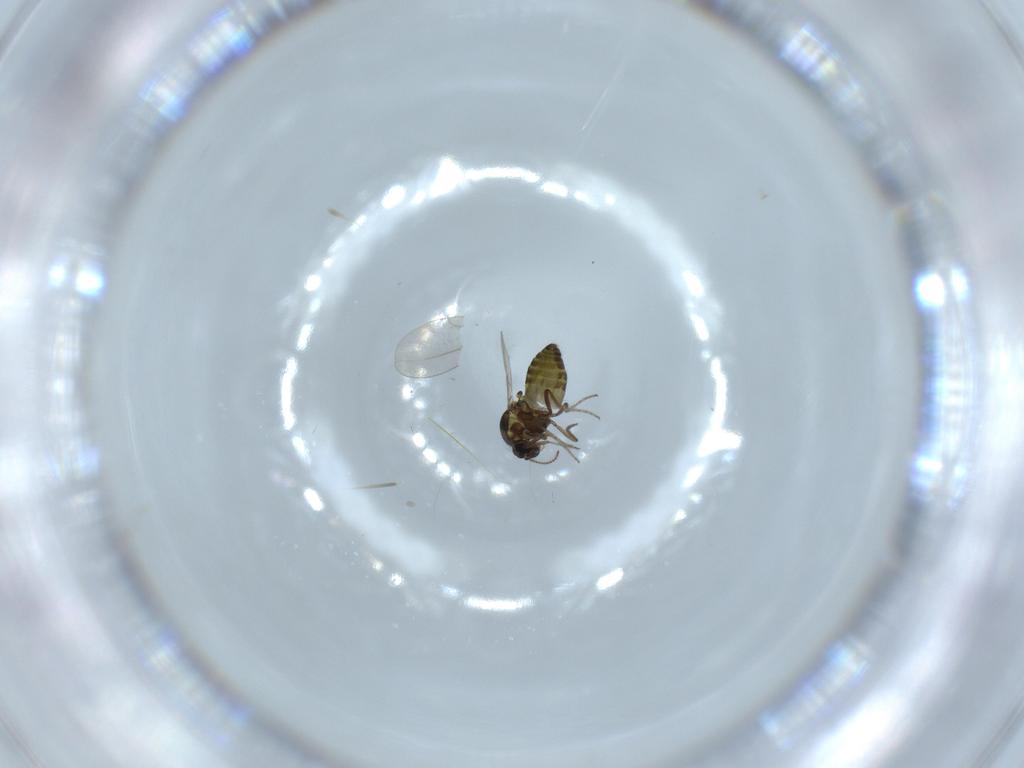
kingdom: Animalia
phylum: Arthropoda
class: Insecta
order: Diptera
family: Ceratopogonidae
